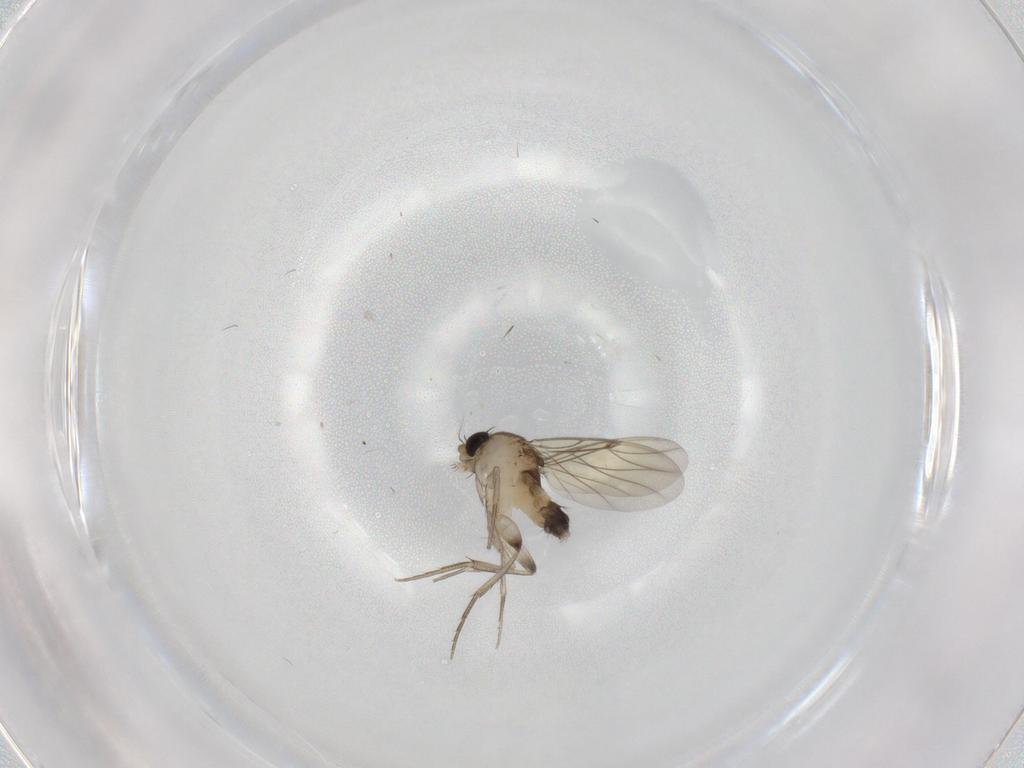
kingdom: Animalia
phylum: Arthropoda
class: Insecta
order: Diptera
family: Phoridae
